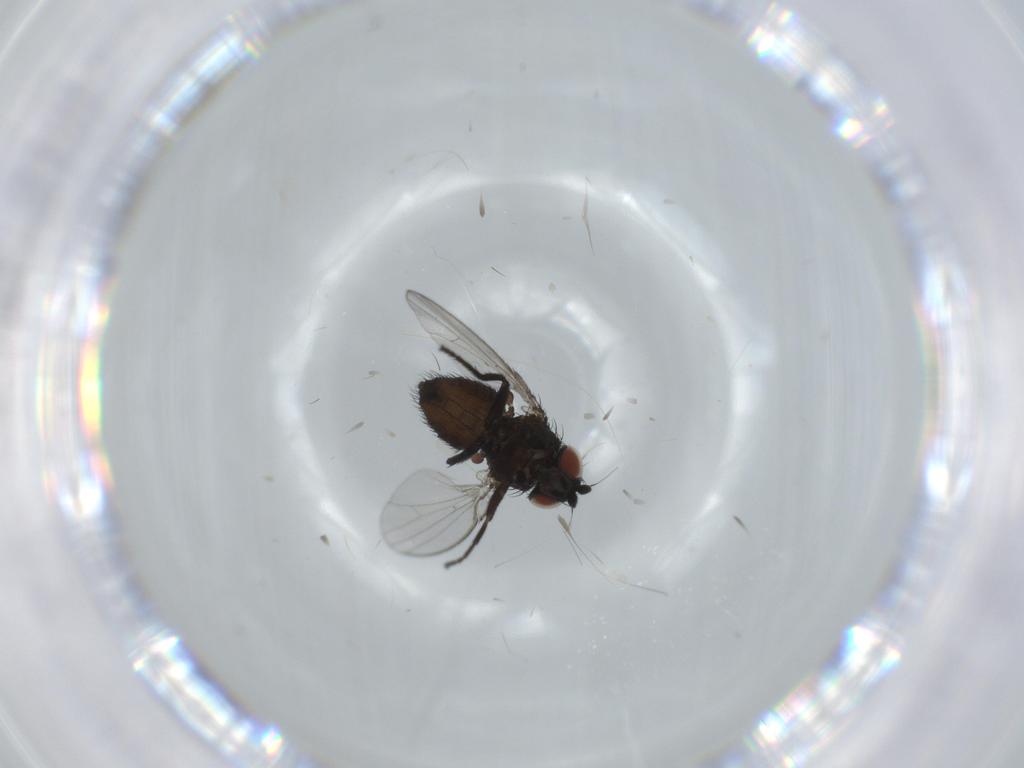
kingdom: Animalia
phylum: Arthropoda
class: Insecta
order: Diptera
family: Milichiidae
